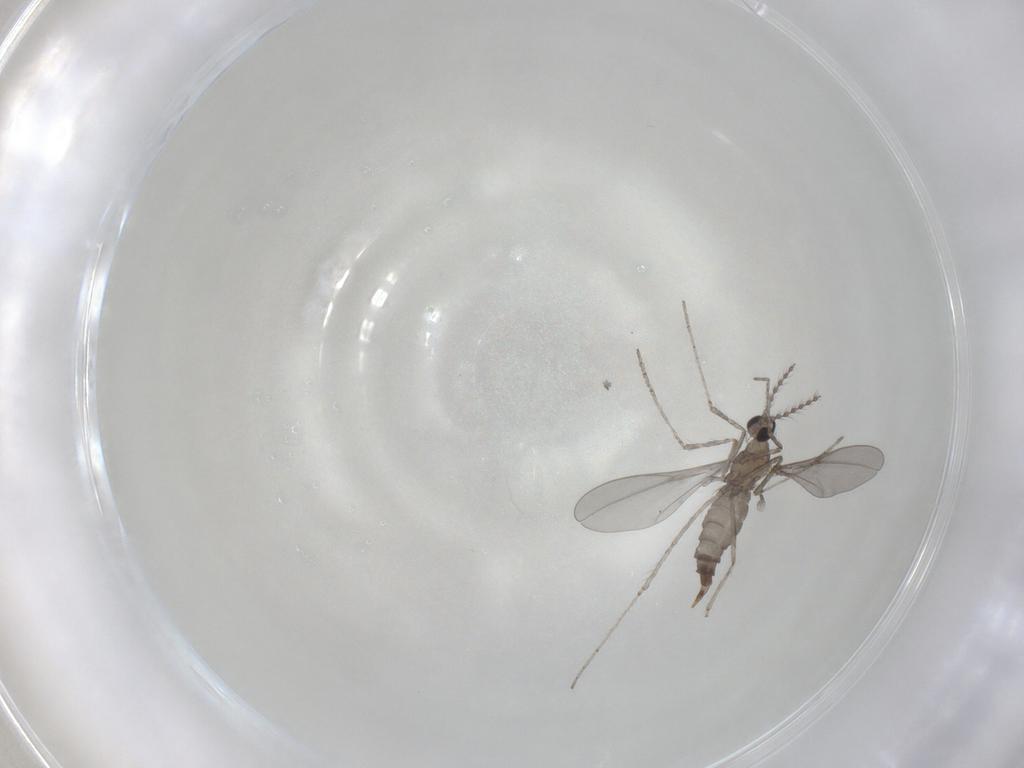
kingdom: Animalia
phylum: Arthropoda
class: Insecta
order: Diptera
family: Cecidomyiidae
